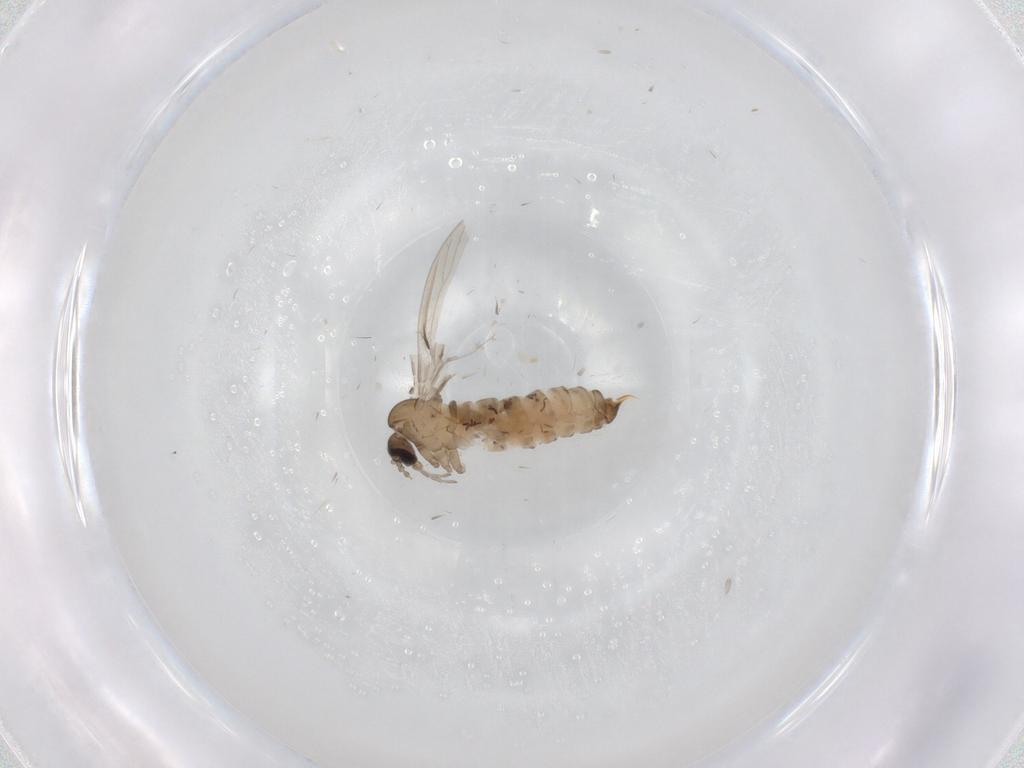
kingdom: Animalia
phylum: Arthropoda
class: Insecta
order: Diptera
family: Psychodidae
